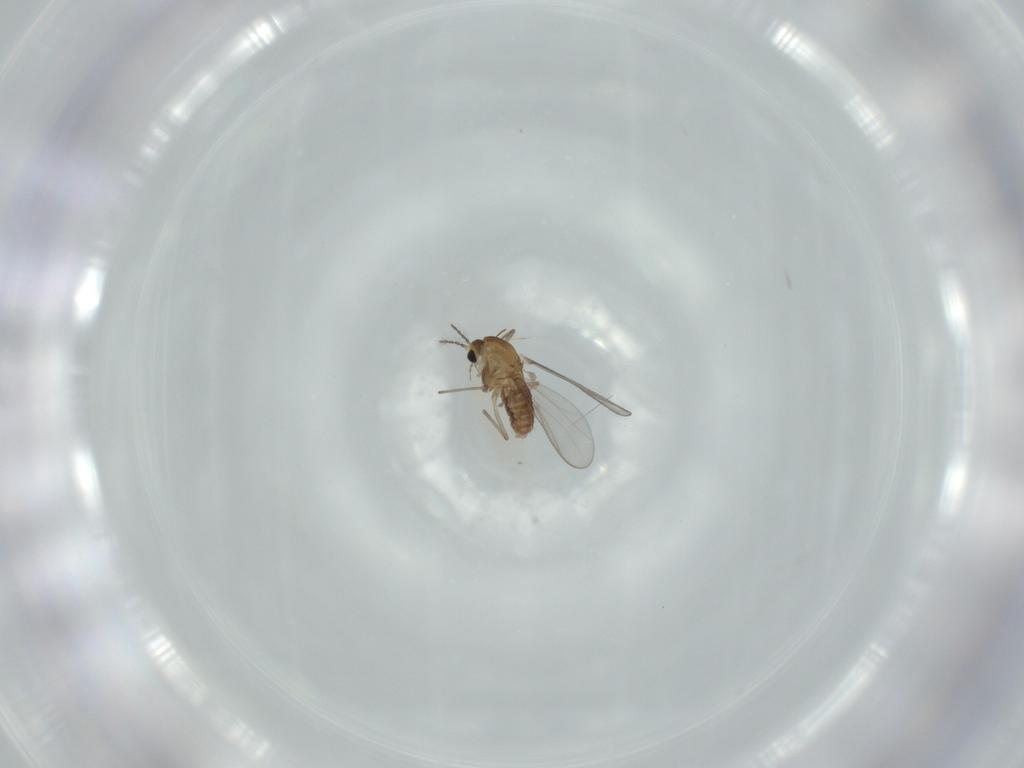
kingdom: Animalia
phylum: Arthropoda
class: Insecta
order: Diptera
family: Chironomidae
